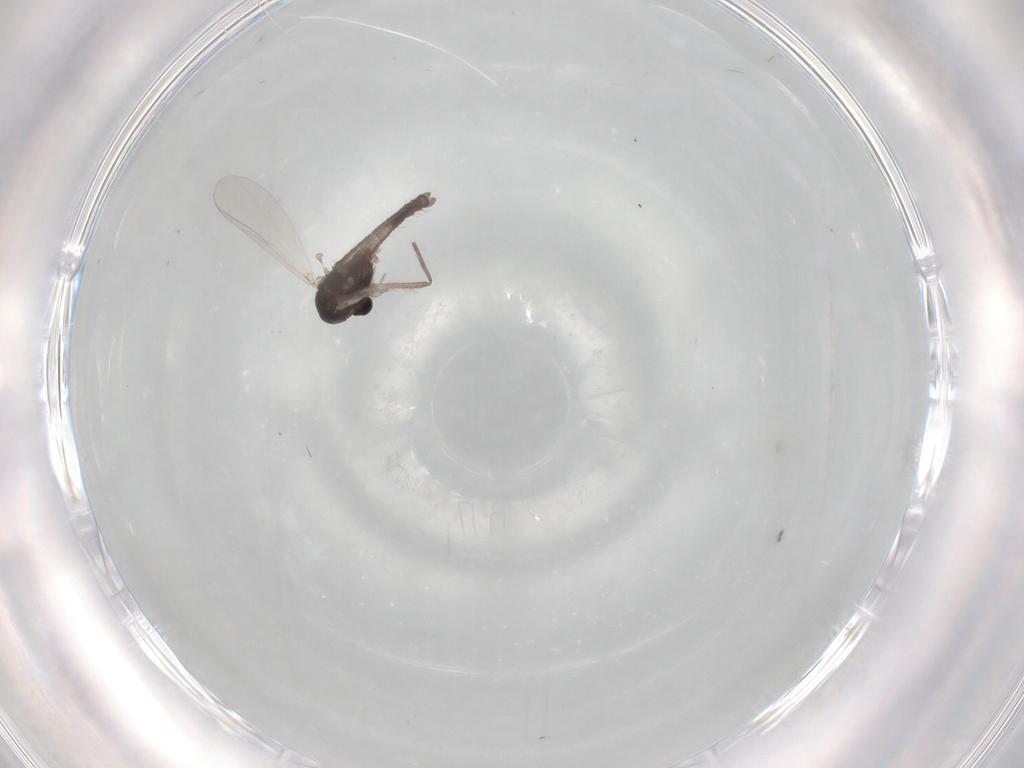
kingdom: Animalia
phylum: Arthropoda
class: Insecta
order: Diptera
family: Chironomidae
